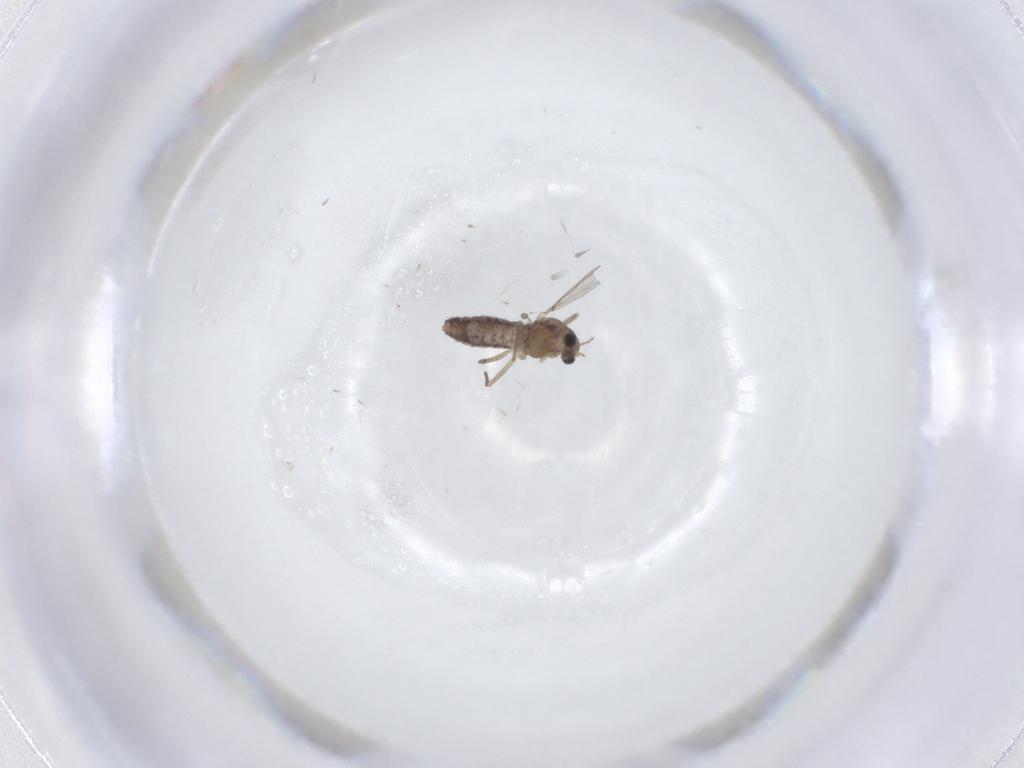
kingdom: Animalia
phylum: Arthropoda
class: Insecta
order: Diptera
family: Chironomidae
